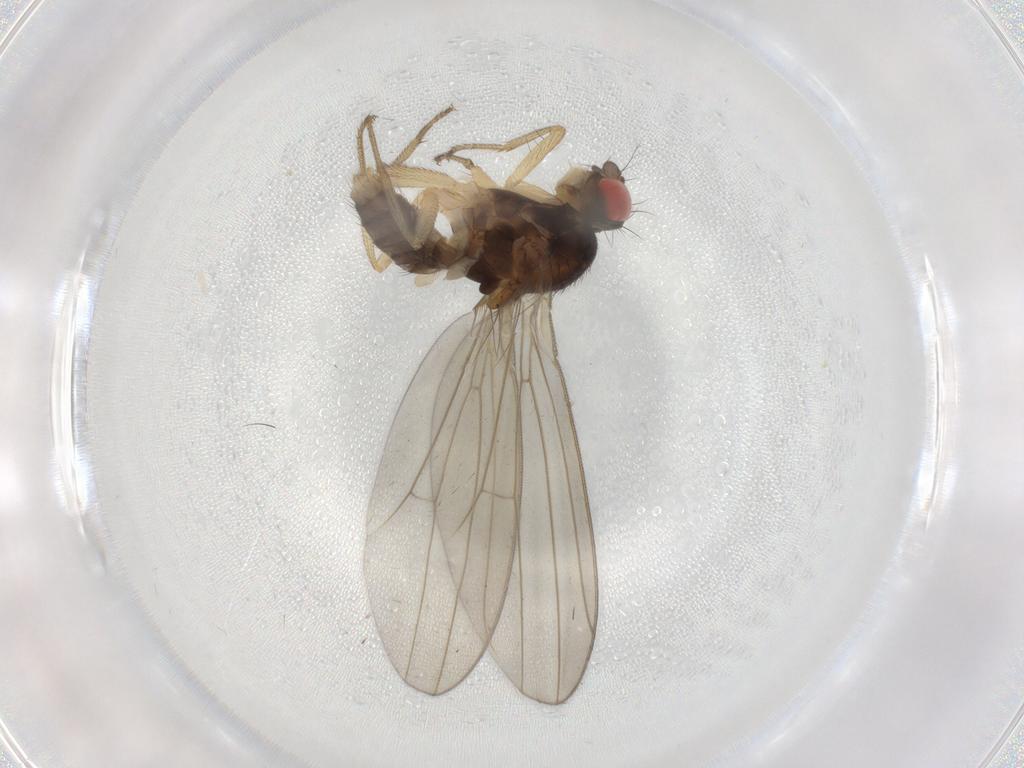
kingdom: Animalia
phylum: Arthropoda
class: Insecta
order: Diptera
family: Drosophilidae
